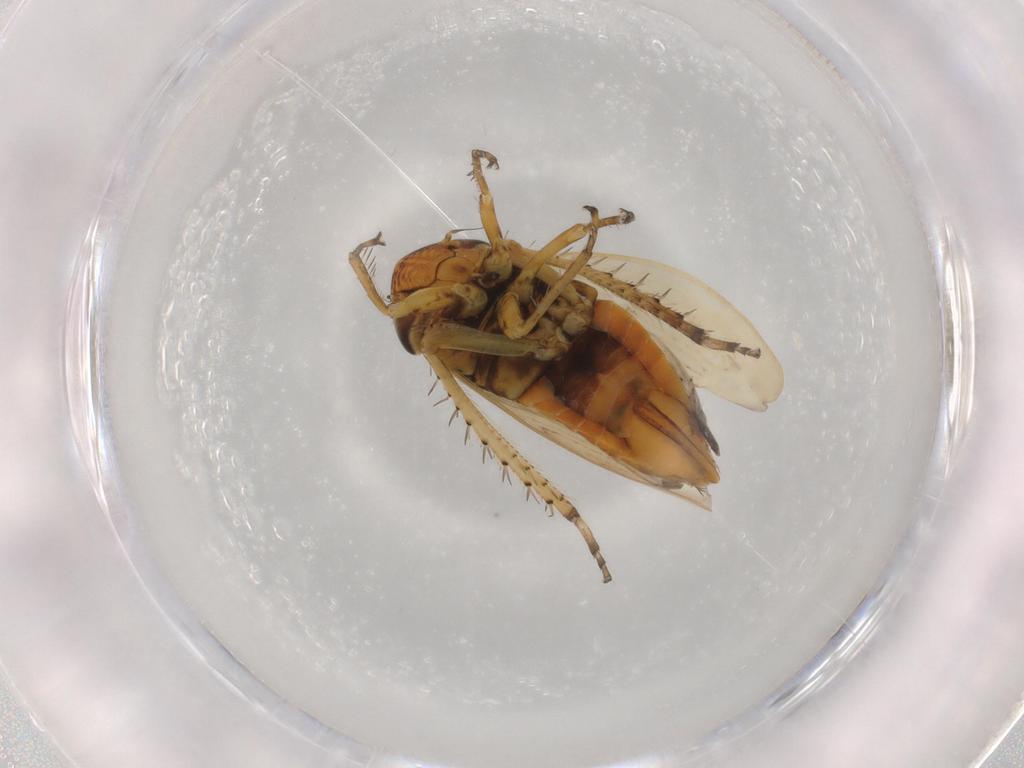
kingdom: Animalia
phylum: Arthropoda
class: Insecta
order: Hemiptera
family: Cicadellidae
